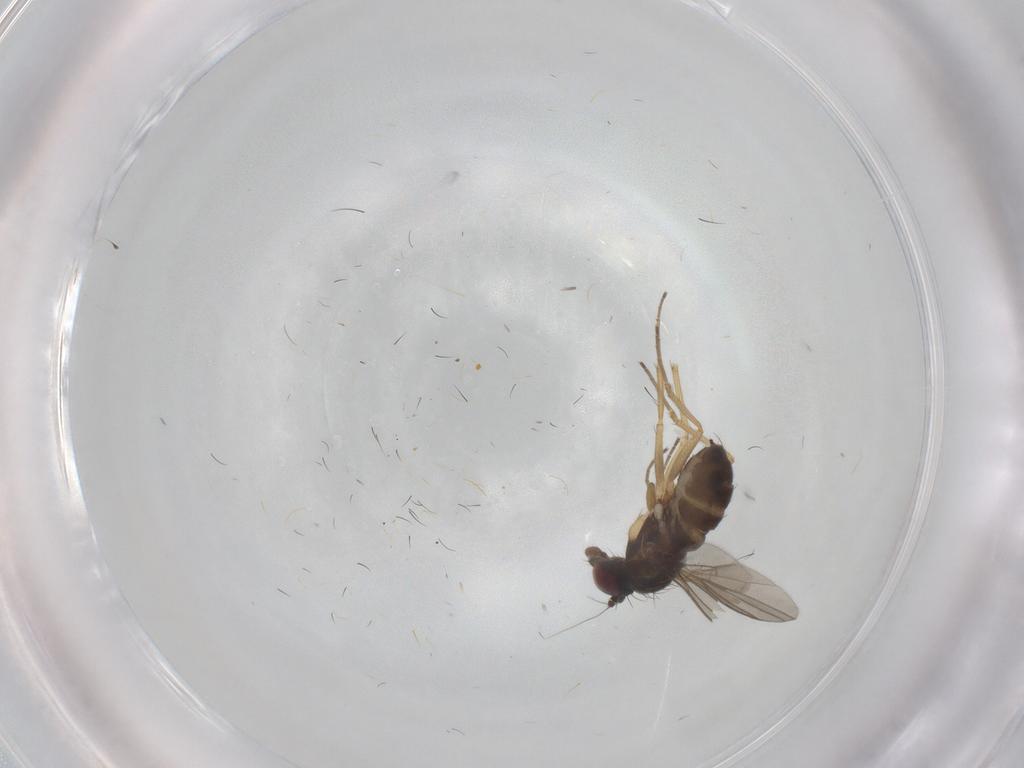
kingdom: Animalia
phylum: Arthropoda
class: Insecta
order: Diptera
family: Dolichopodidae
